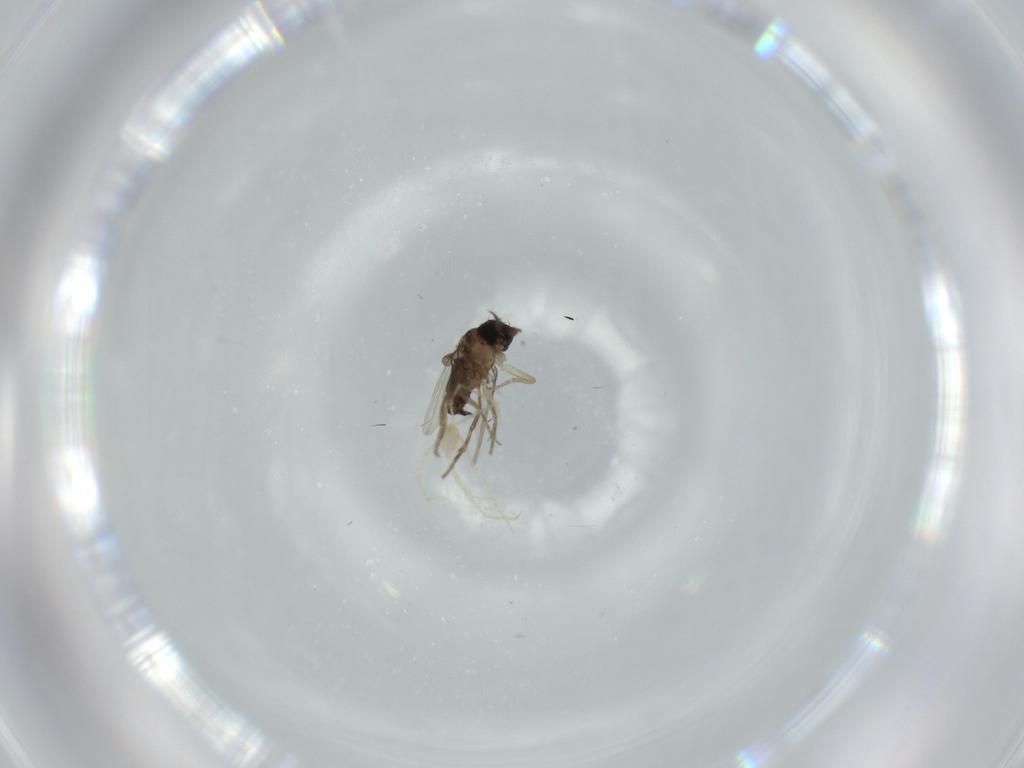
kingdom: Animalia
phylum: Arthropoda
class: Insecta
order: Diptera
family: Phoridae
